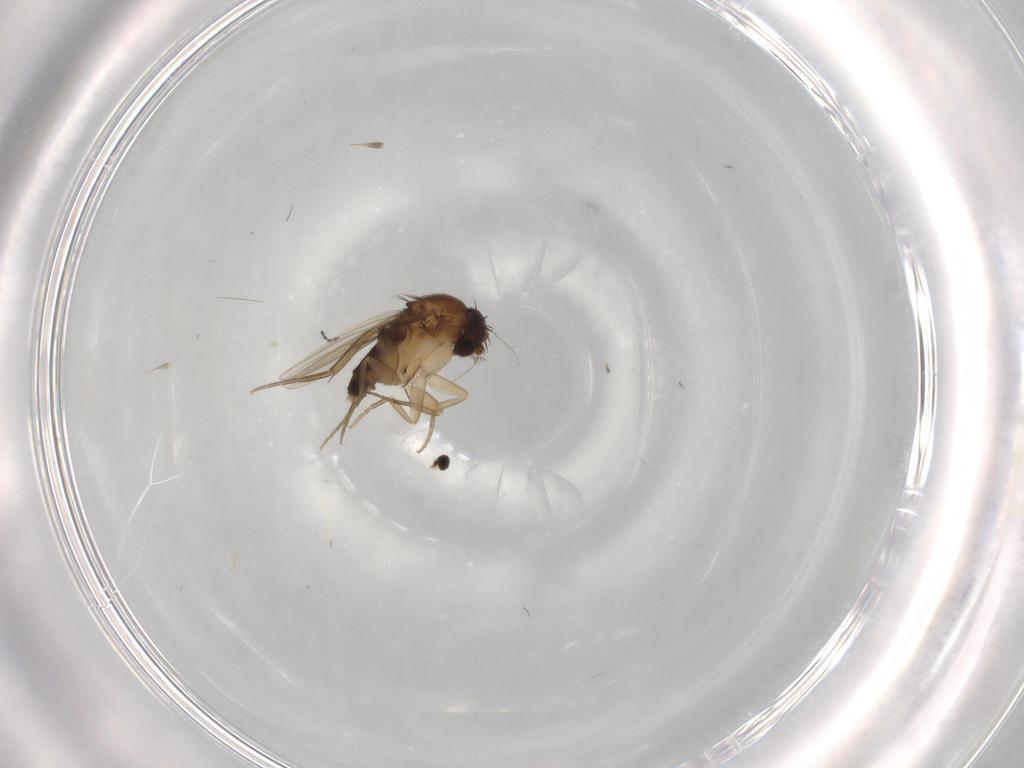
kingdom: Animalia
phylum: Arthropoda
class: Insecta
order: Diptera
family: Phoridae
